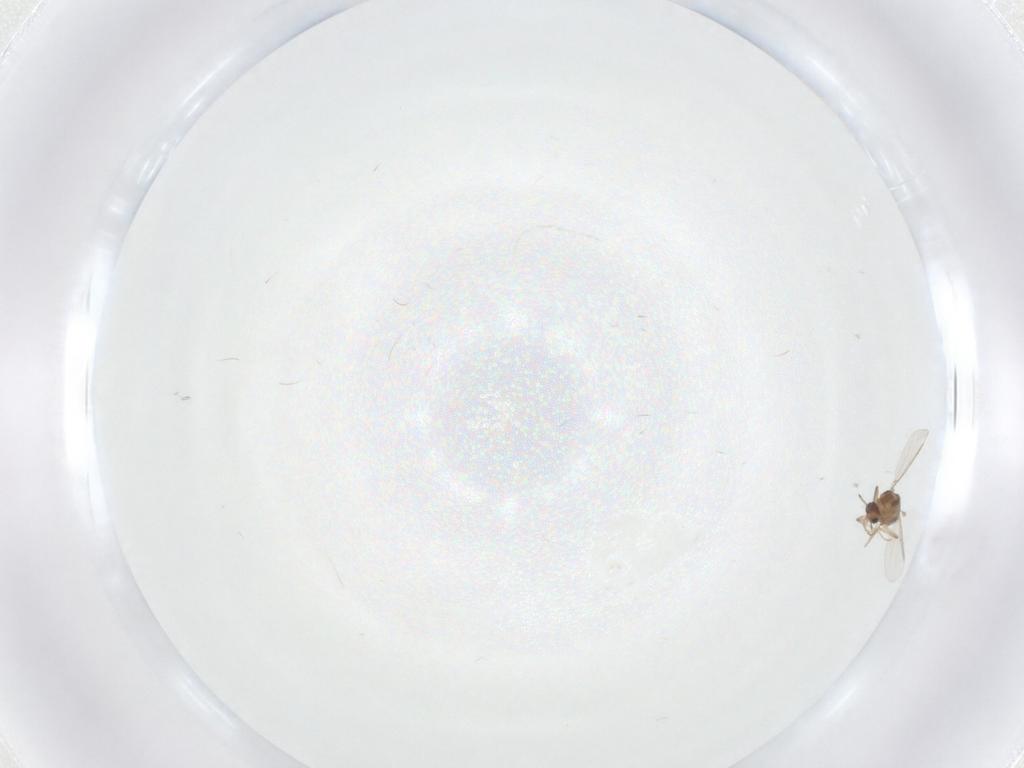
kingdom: Animalia
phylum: Arthropoda
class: Insecta
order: Diptera
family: Chironomidae
